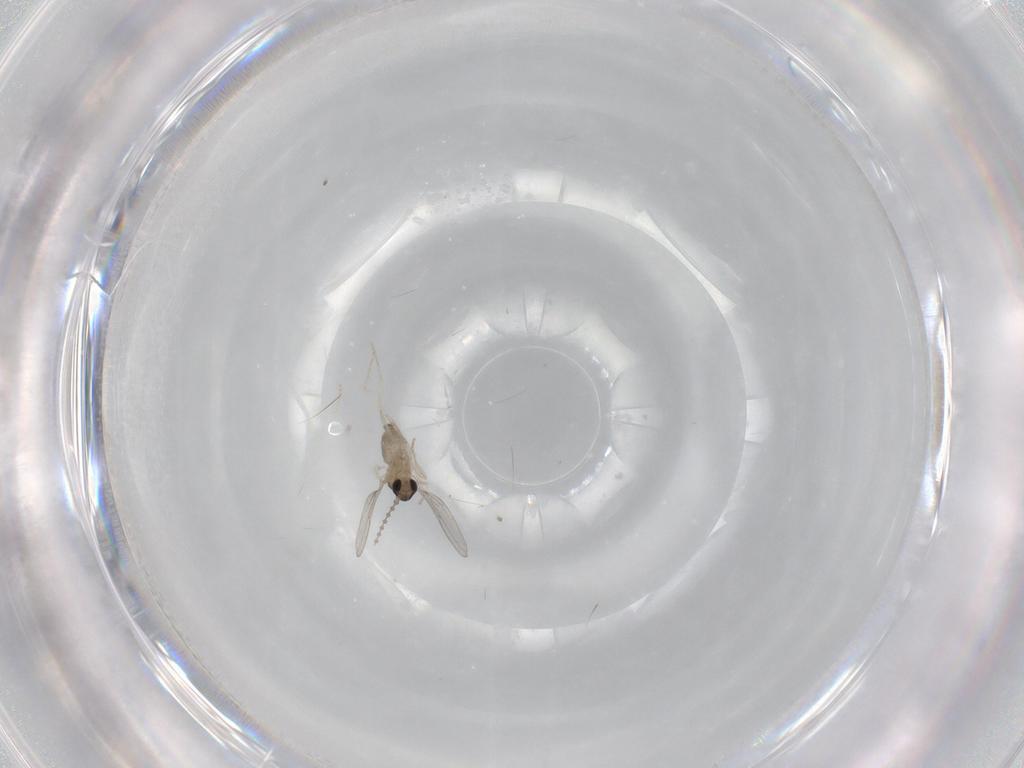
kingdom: Animalia
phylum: Arthropoda
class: Insecta
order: Diptera
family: Cecidomyiidae
